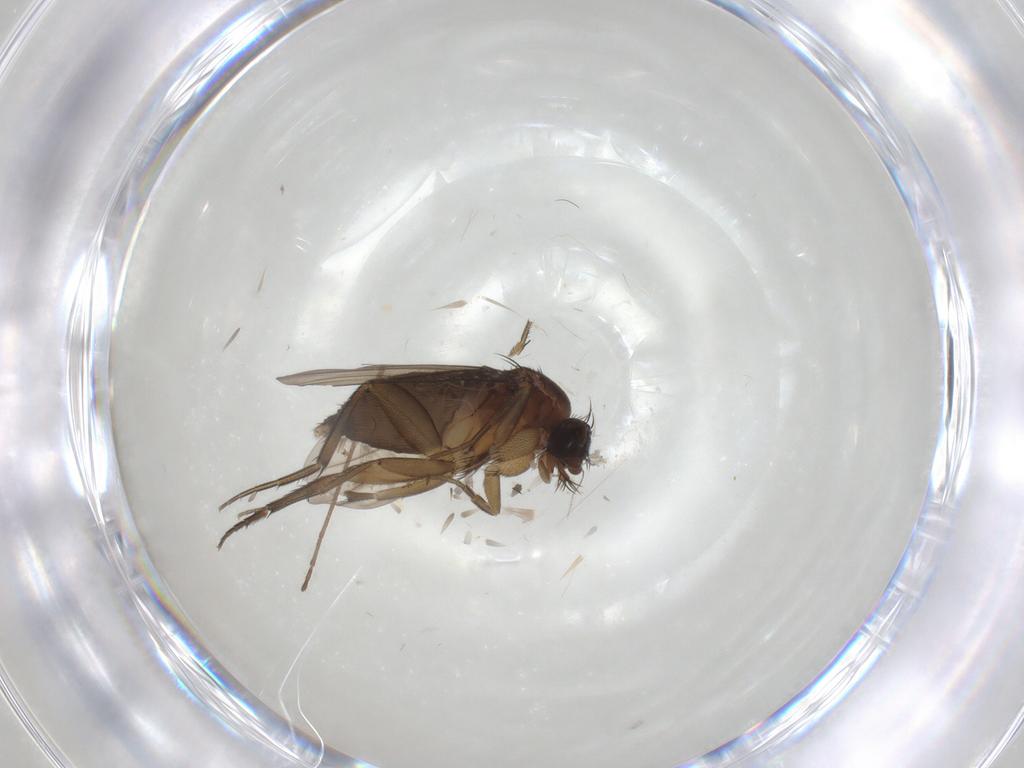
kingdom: Animalia
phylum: Arthropoda
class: Insecta
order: Diptera
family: Phoridae
